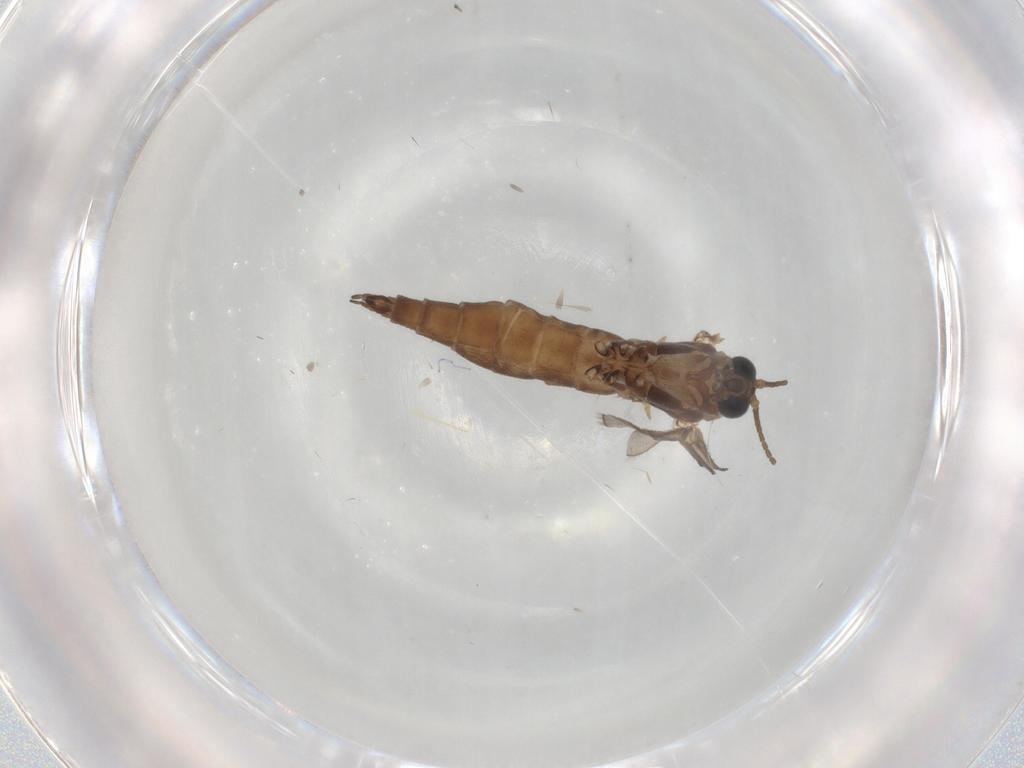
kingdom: Animalia
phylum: Arthropoda
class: Insecta
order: Diptera
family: Sciaridae
